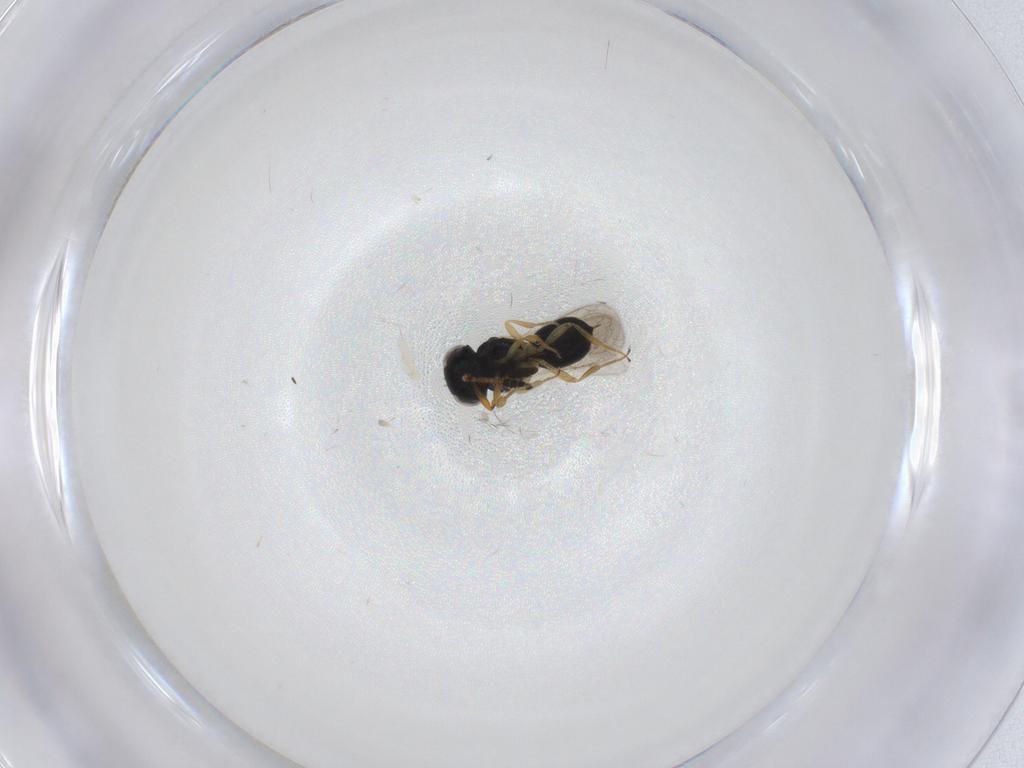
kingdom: Animalia
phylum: Arthropoda
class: Insecta
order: Hymenoptera
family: Scelionidae
